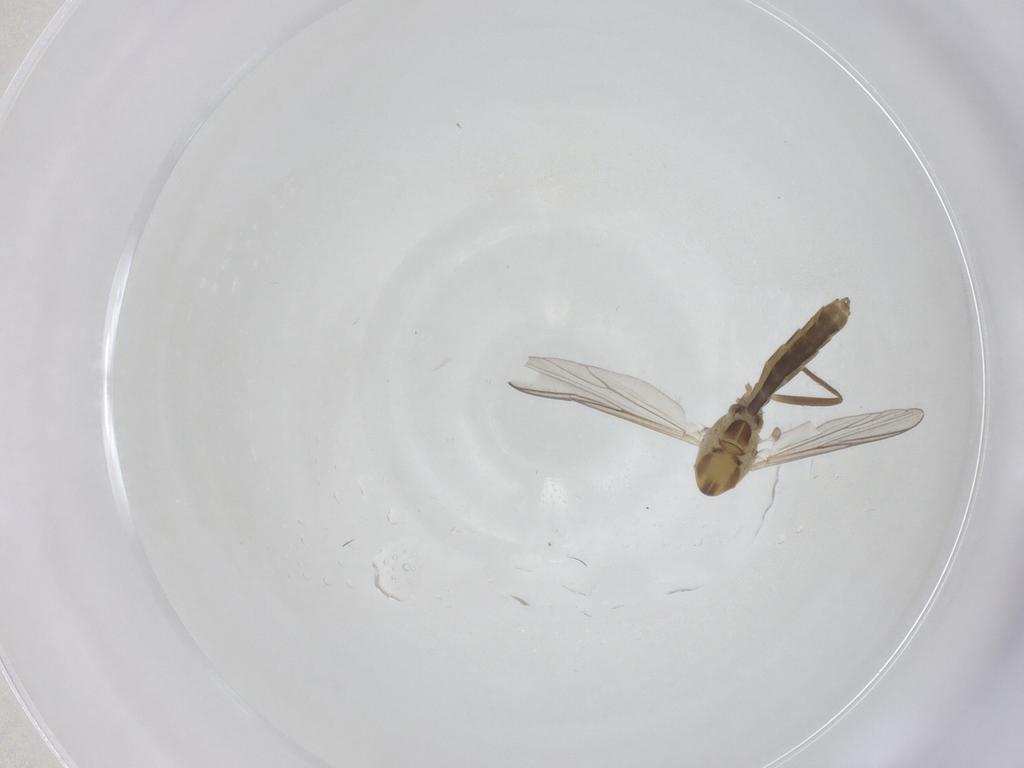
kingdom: Animalia
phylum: Arthropoda
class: Insecta
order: Diptera
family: Chironomidae
